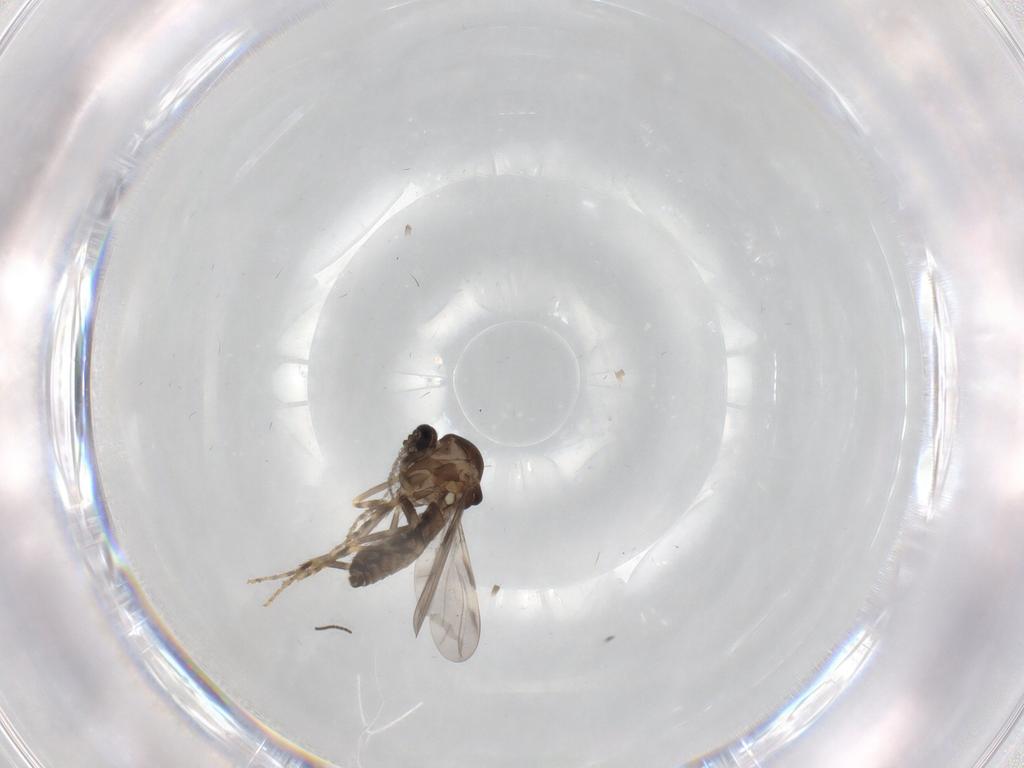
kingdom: Animalia
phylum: Arthropoda
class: Insecta
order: Diptera
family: Ceratopogonidae
